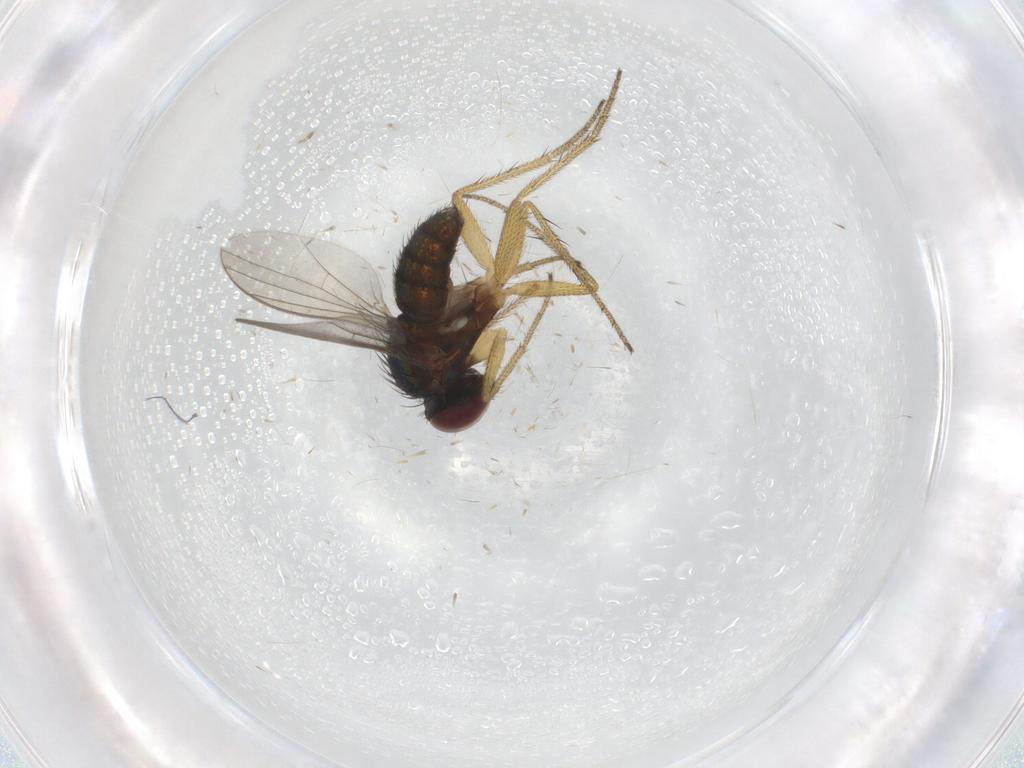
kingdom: Animalia
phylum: Arthropoda
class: Insecta
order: Diptera
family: Limoniidae
